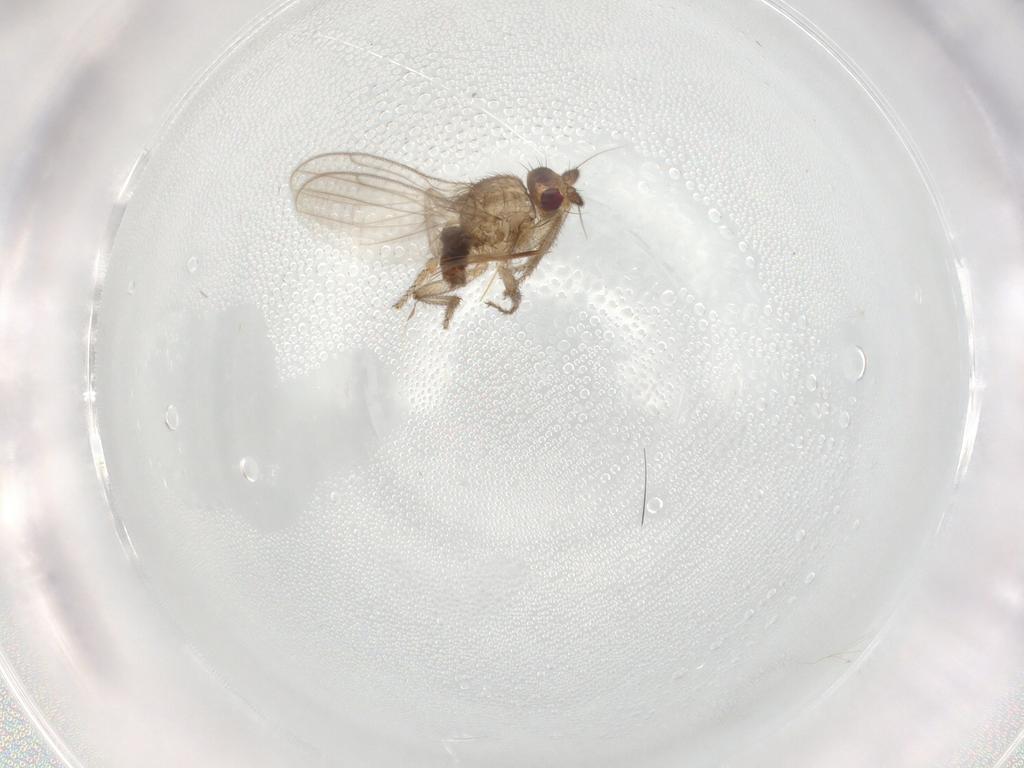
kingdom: Animalia
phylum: Arthropoda
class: Insecta
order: Diptera
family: Sphaeroceridae
